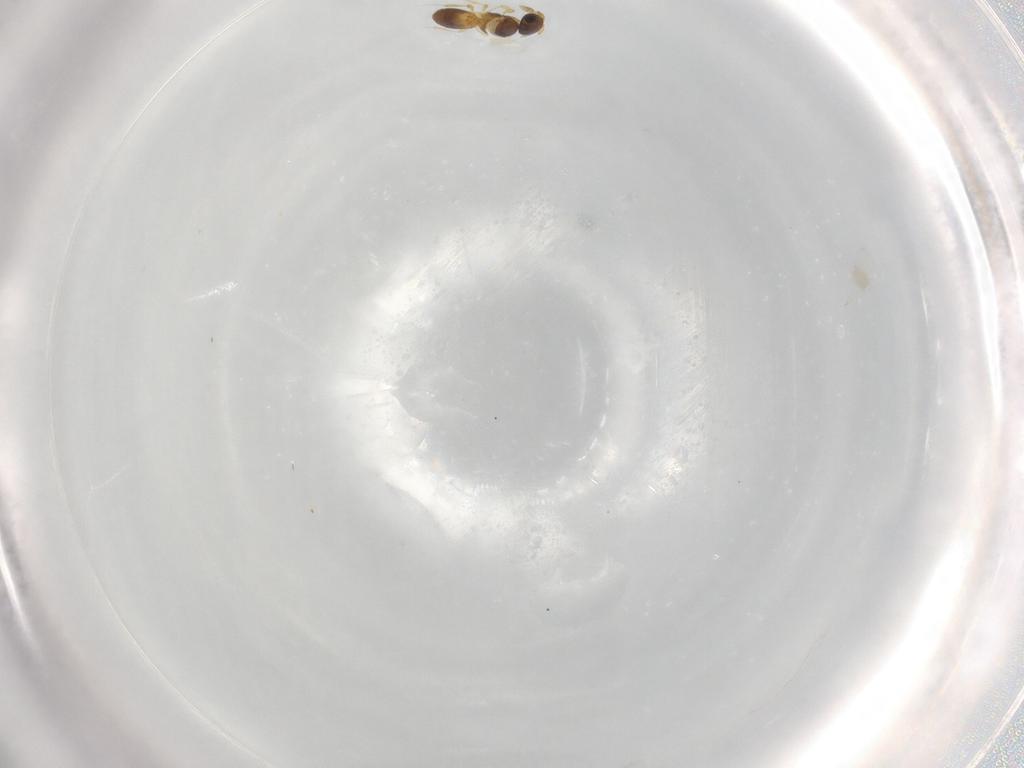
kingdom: Animalia
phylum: Arthropoda
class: Insecta
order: Hymenoptera
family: Platygastridae
